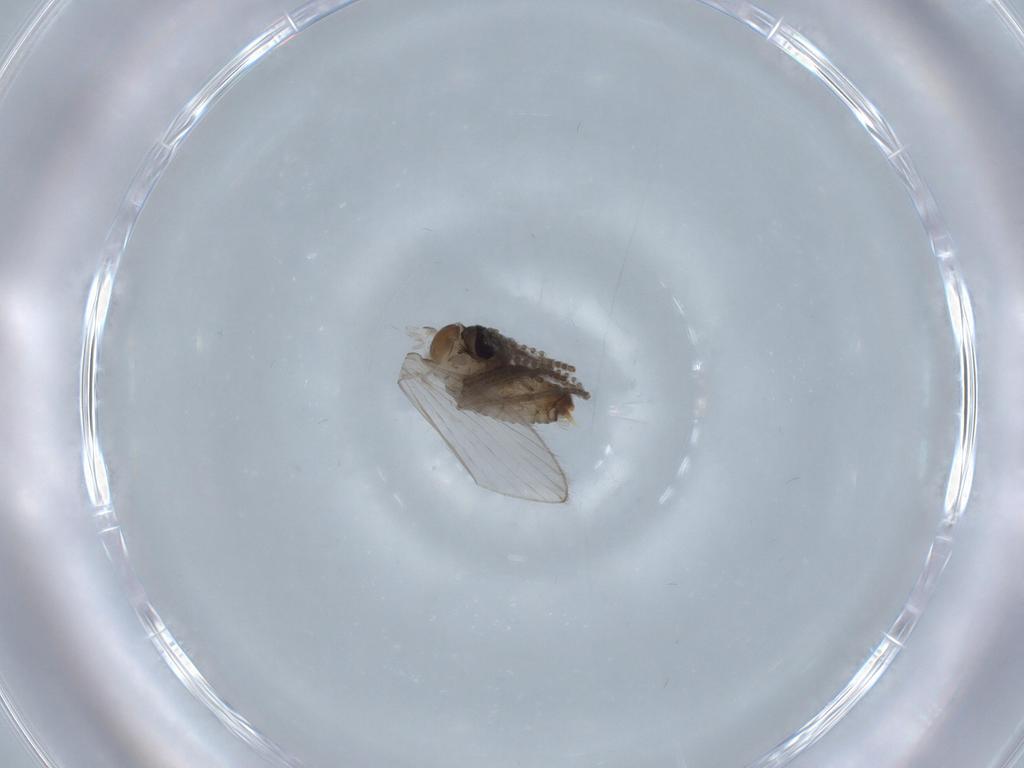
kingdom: Animalia
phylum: Arthropoda
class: Insecta
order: Diptera
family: Psychodidae
